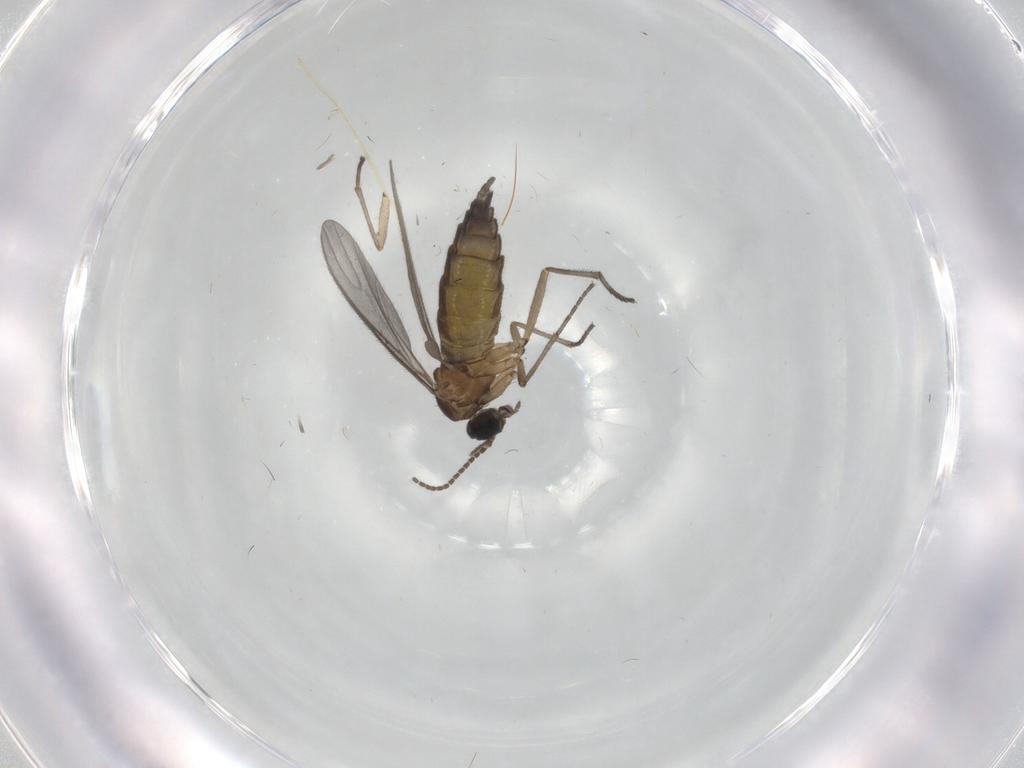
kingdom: Animalia
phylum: Arthropoda
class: Insecta
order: Diptera
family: Sciaridae
